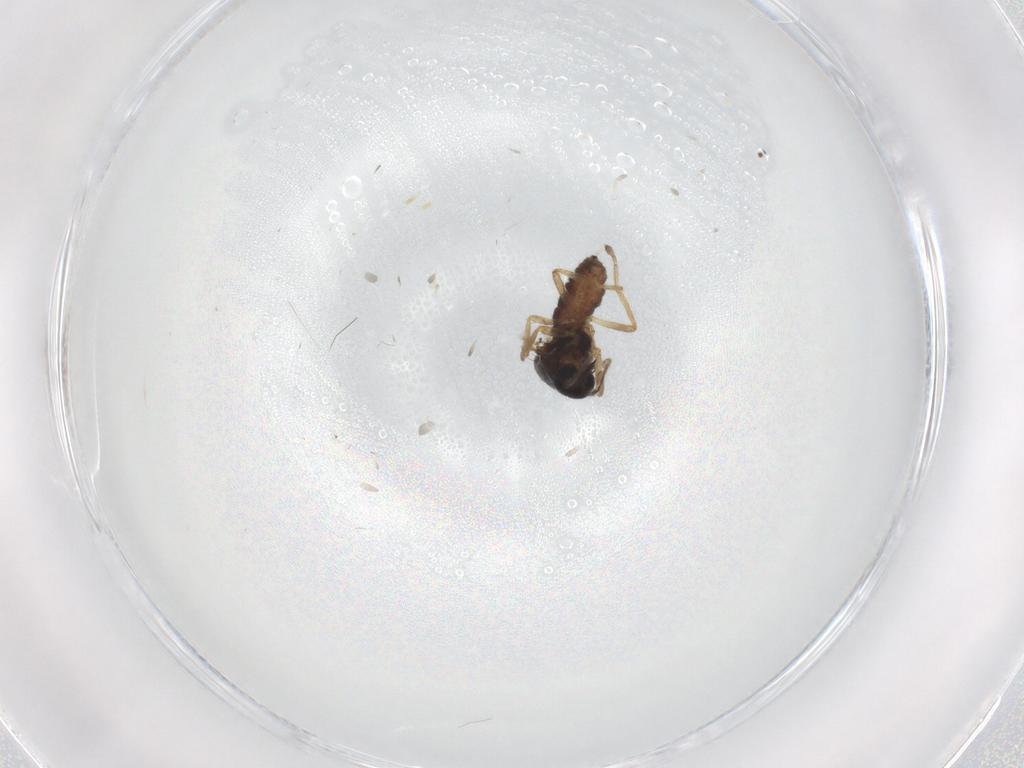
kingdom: Animalia
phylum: Arthropoda
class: Insecta
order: Diptera
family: Ceratopogonidae
